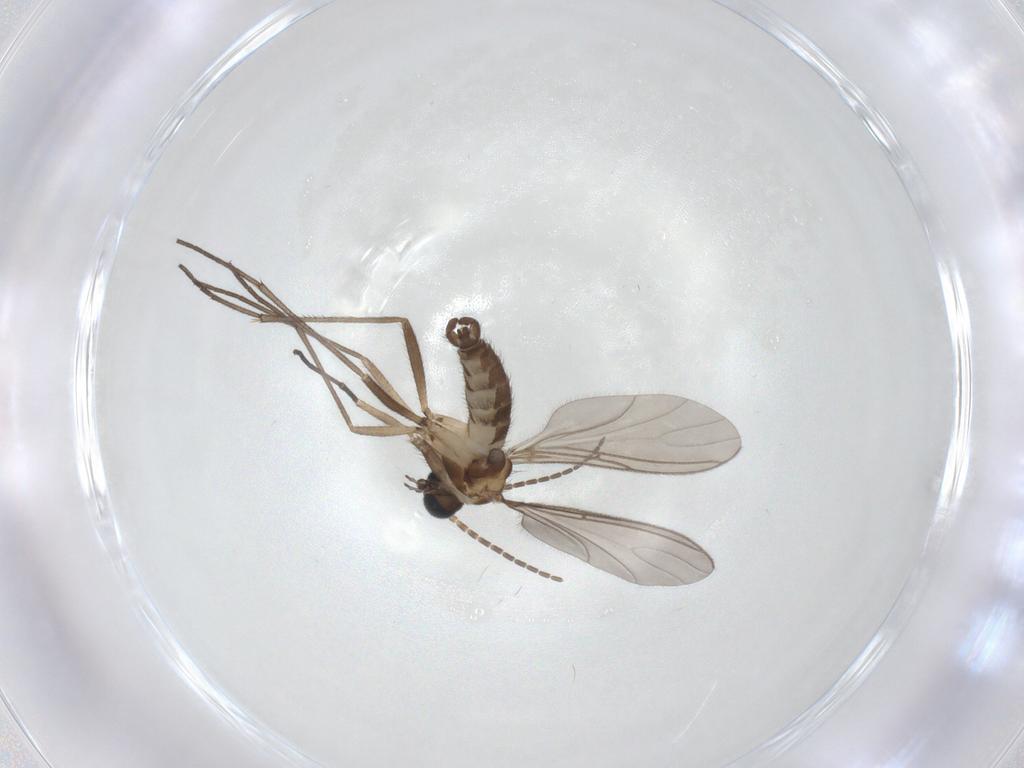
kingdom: Animalia
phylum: Arthropoda
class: Insecta
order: Diptera
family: Sciaridae
